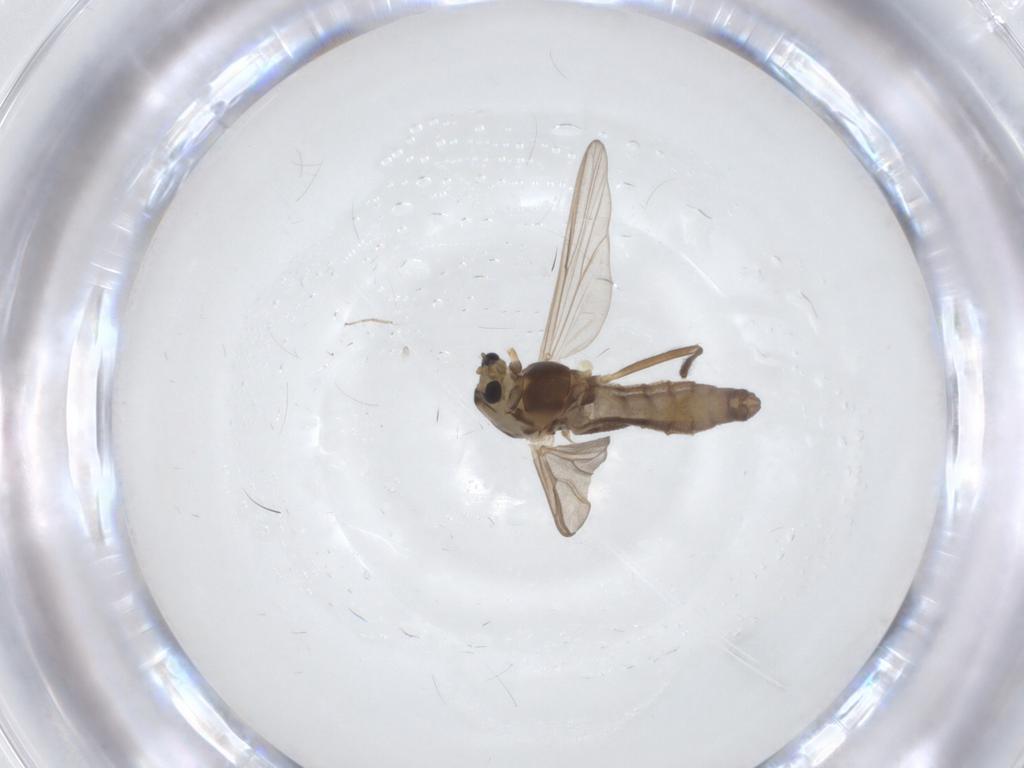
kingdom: Animalia
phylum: Arthropoda
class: Insecta
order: Diptera
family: Chironomidae
